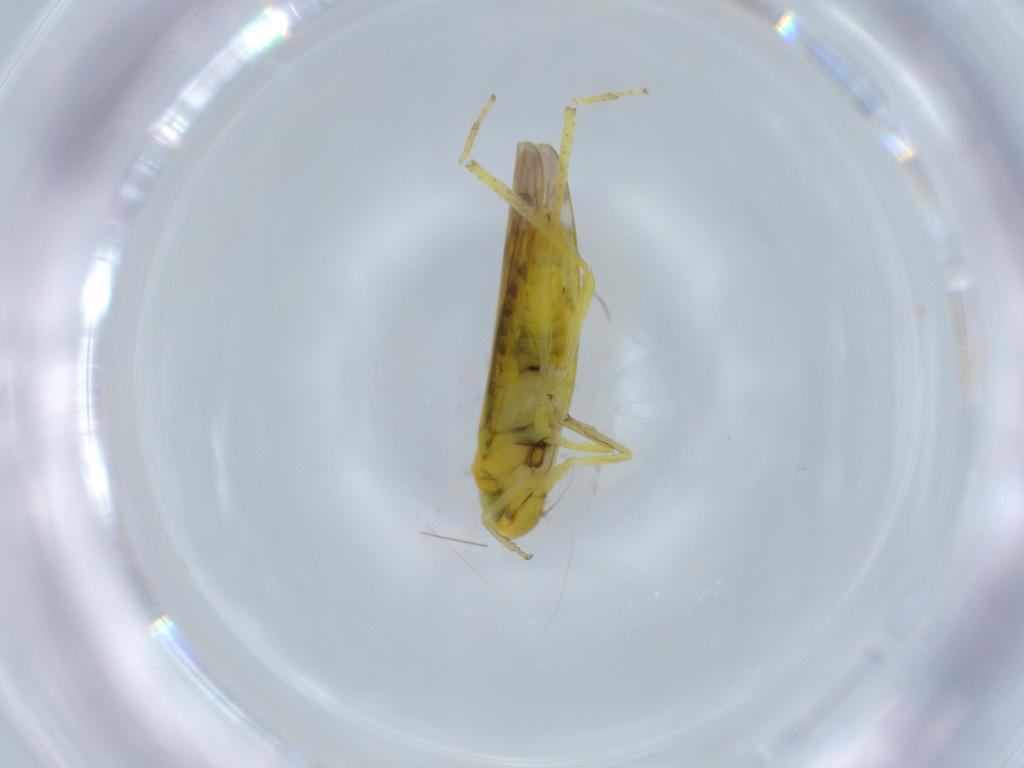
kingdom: Animalia
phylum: Arthropoda
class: Insecta
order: Hemiptera
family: Cicadellidae
